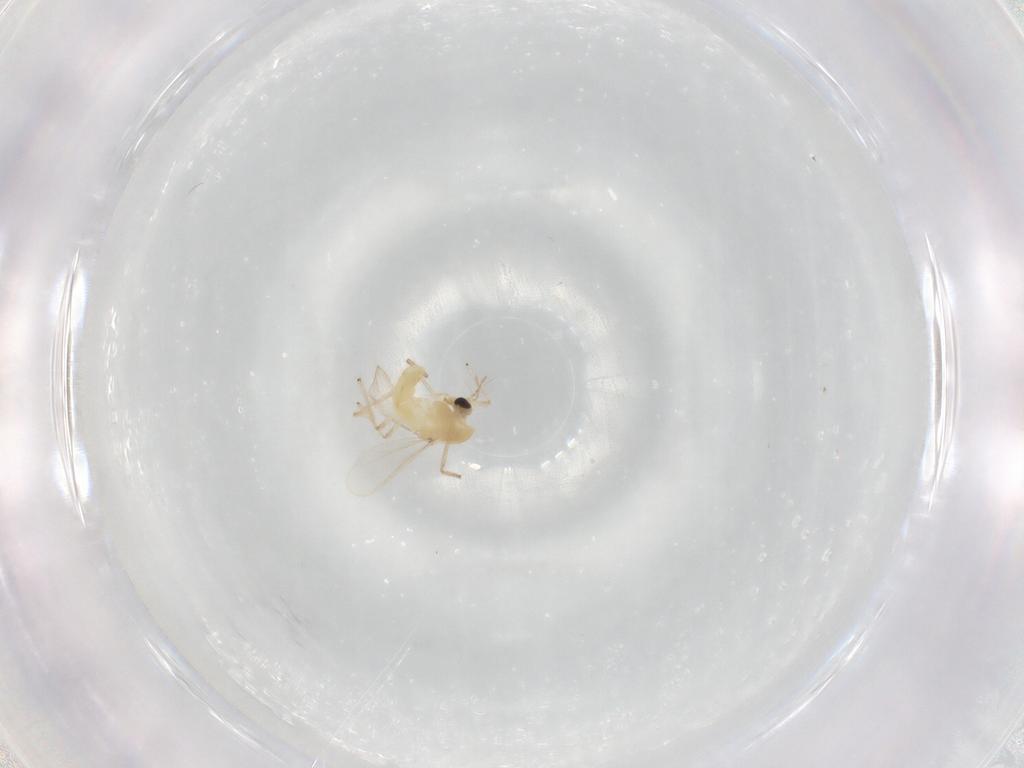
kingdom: Animalia
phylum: Arthropoda
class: Insecta
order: Diptera
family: Chironomidae
